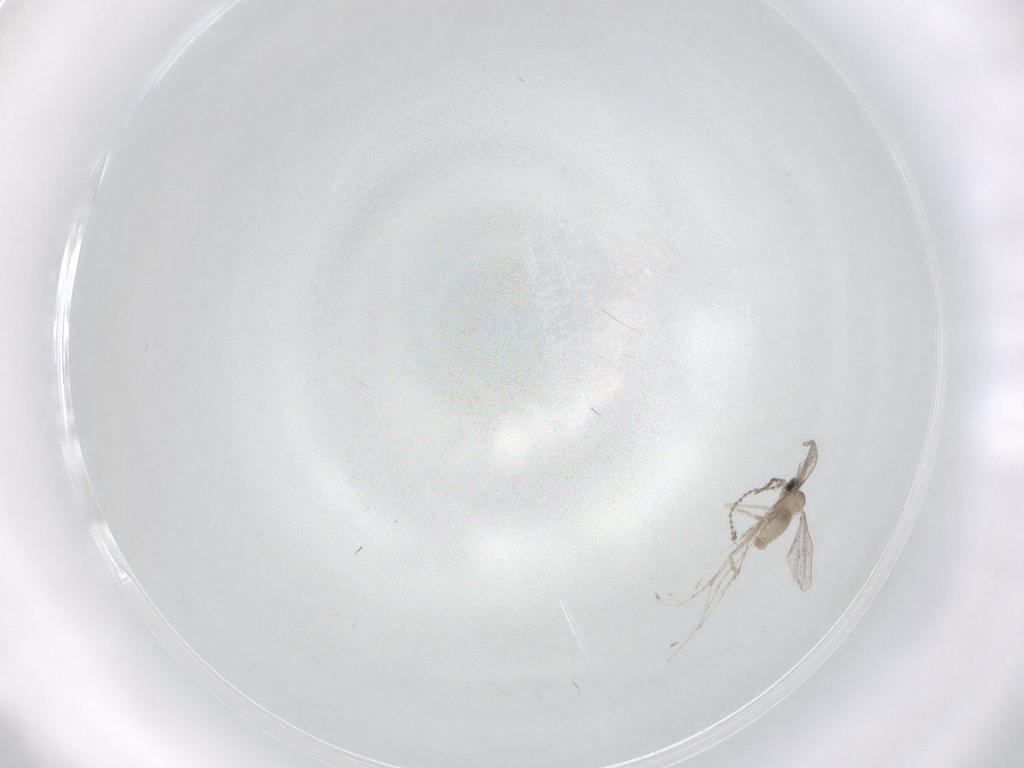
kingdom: Animalia
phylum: Arthropoda
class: Insecta
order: Diptera
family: Cecidomyiidae
